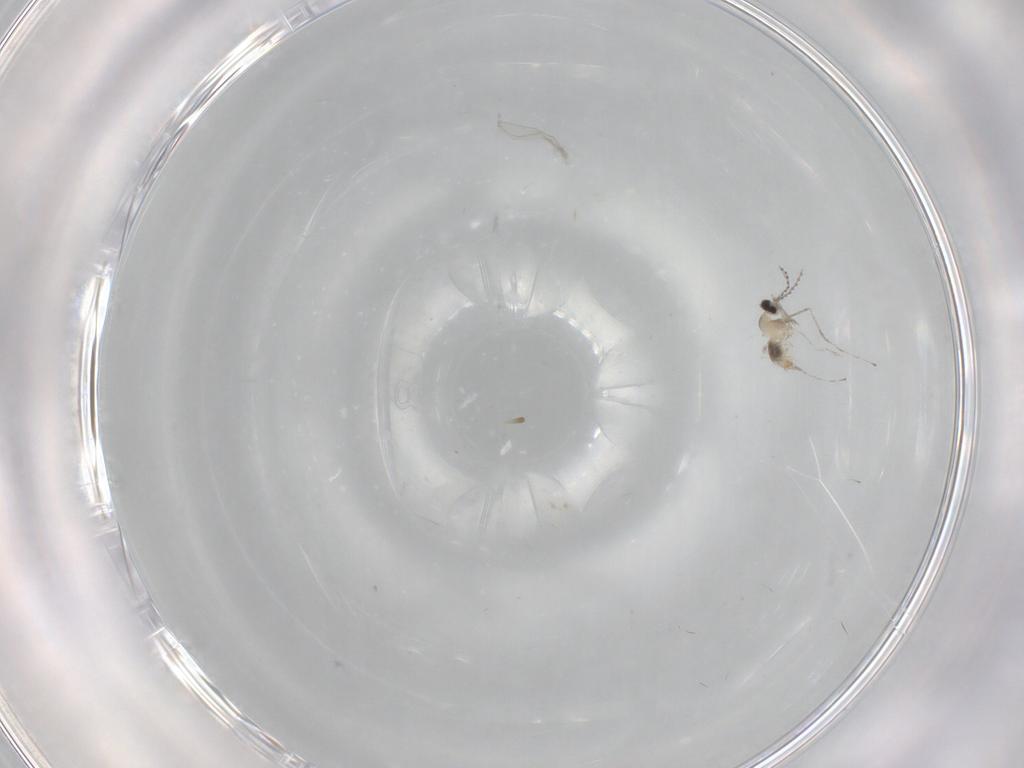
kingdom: Animalia
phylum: Arthropoda
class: Insecta
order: Diptera
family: Cecidomyiidae
